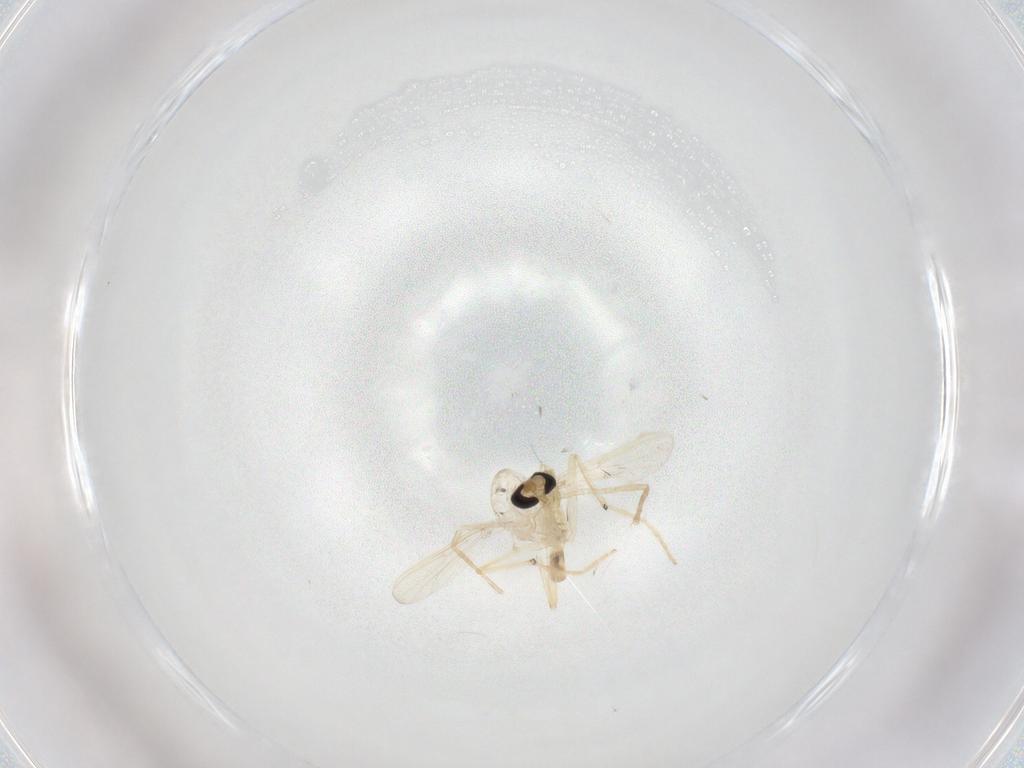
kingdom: Animalia
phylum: Arthropoda
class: Insecta
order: Diptera
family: Chironomidae
